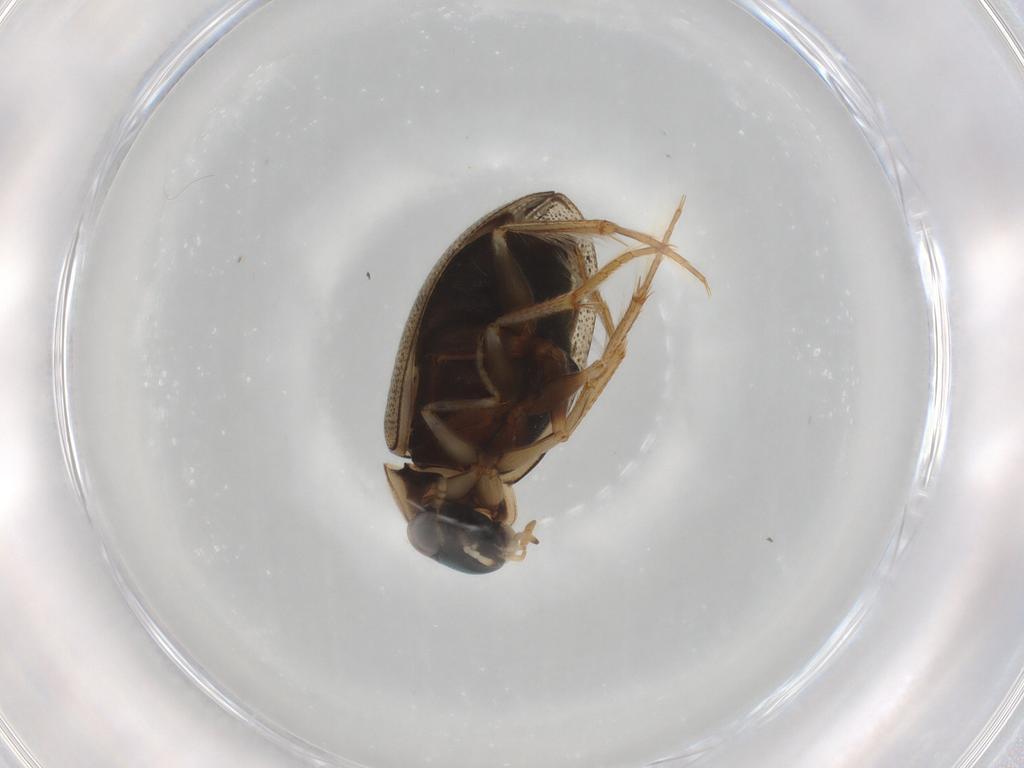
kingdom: Animalia
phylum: Arthropoda
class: Insecta
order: Coleoptera
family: Hydrophilidae
